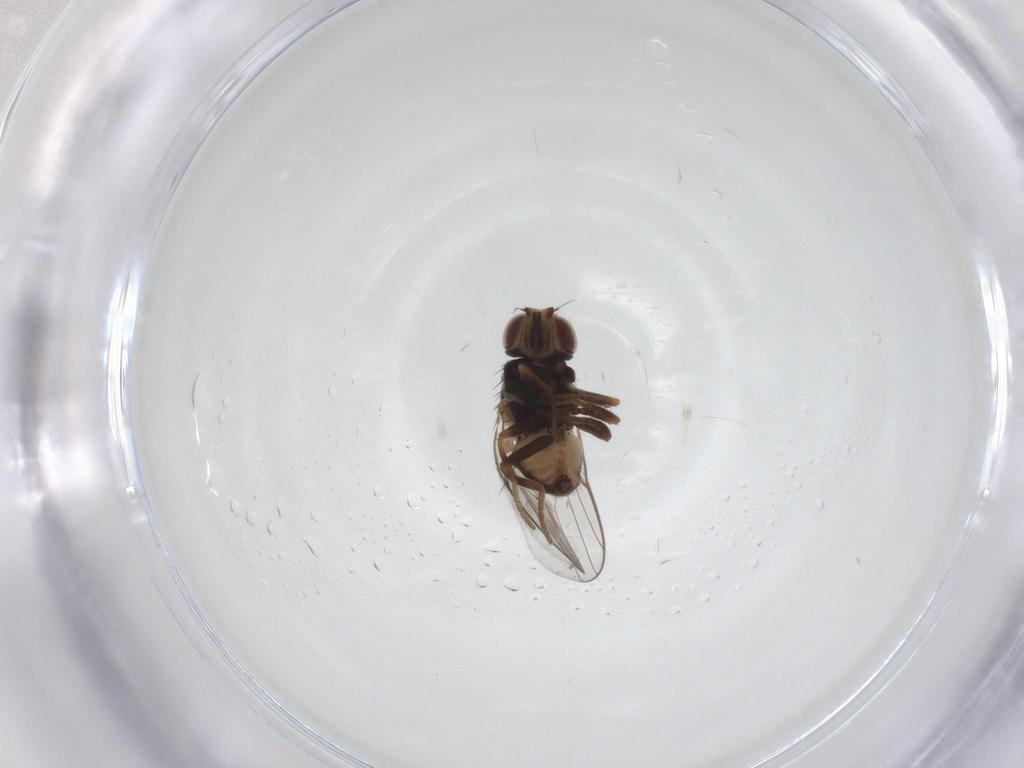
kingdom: Animalia
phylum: Arthropoda
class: Insecta
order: Diptera
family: Chloropidae
